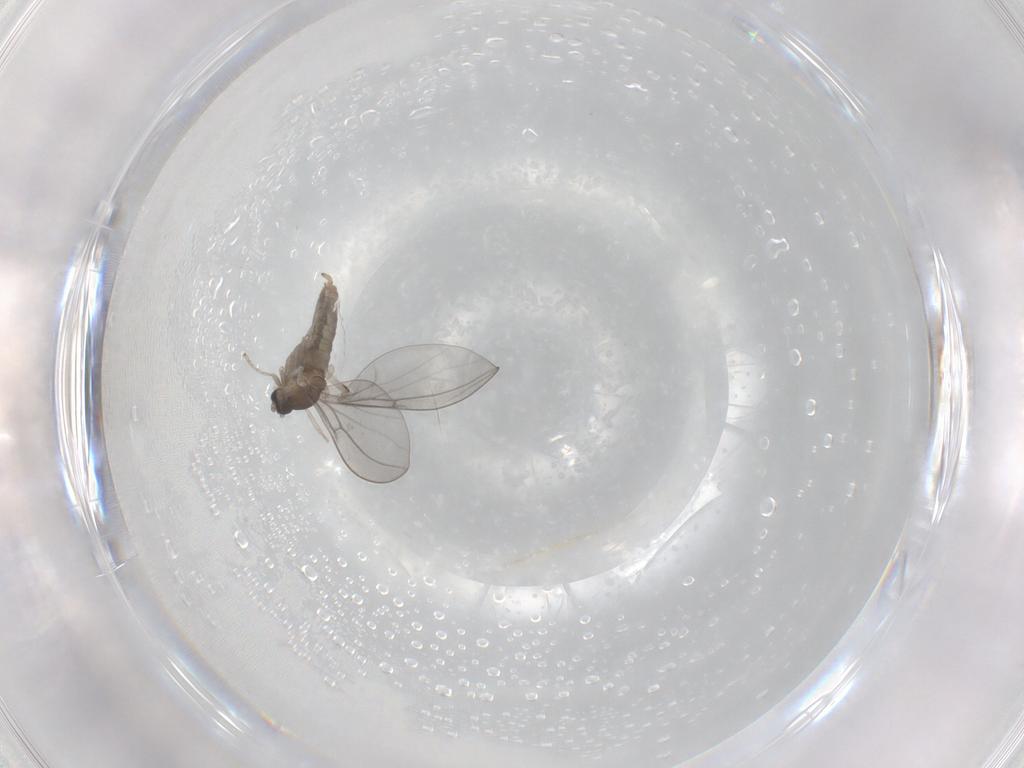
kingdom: Animalia
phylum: Arthropoda
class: Insecta
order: Diptera
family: Cecidomyiidae
